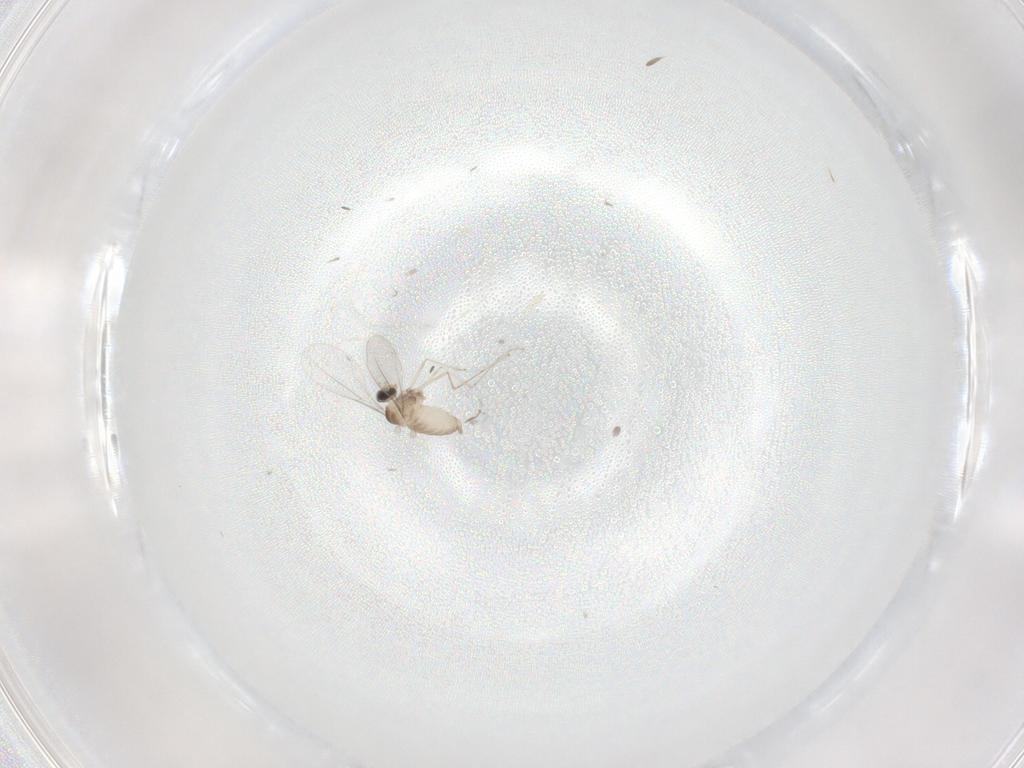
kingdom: Animalia
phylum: Arthropoda
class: Insecta
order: Diptera
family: Cecidomyiidae
